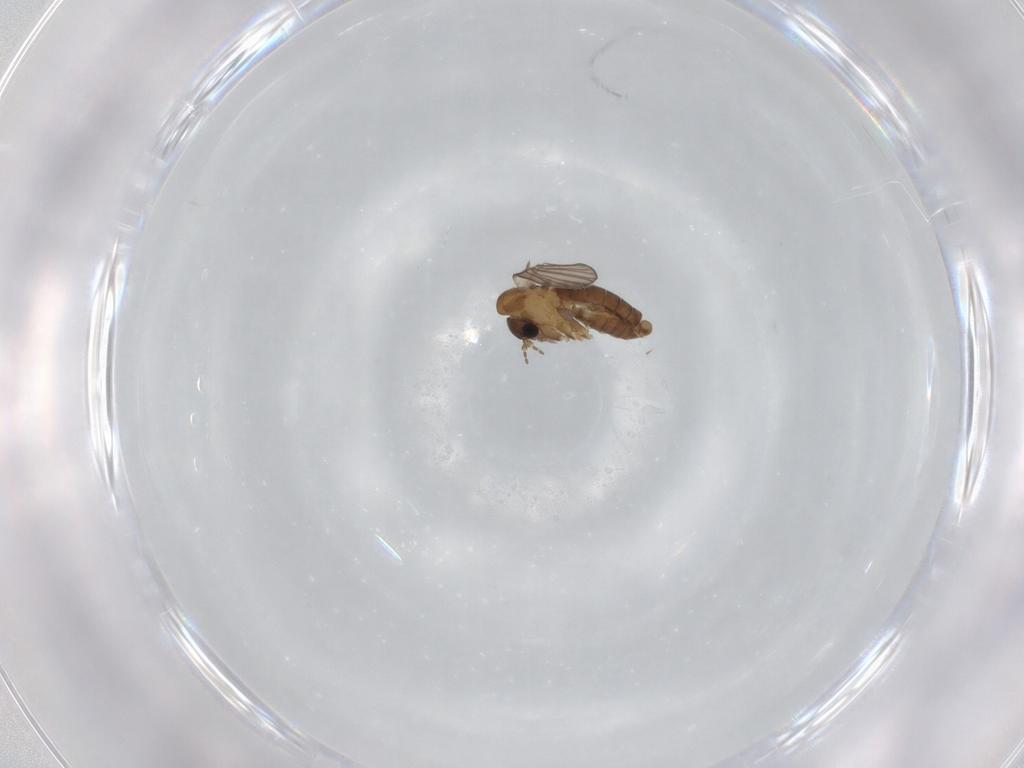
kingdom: Animalia
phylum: Arthropoda
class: Insecta
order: Diptera
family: Psychodidae
